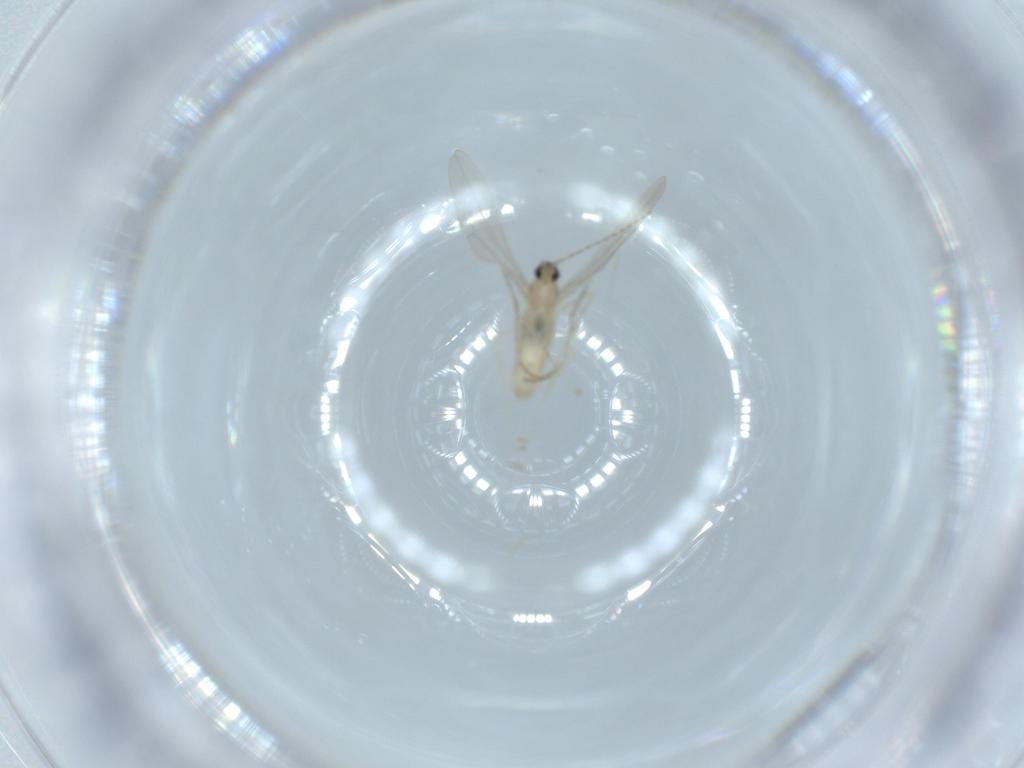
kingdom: Animalia
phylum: Arthropoda
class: Insecta
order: Diptera
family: Cecidomyiidae
